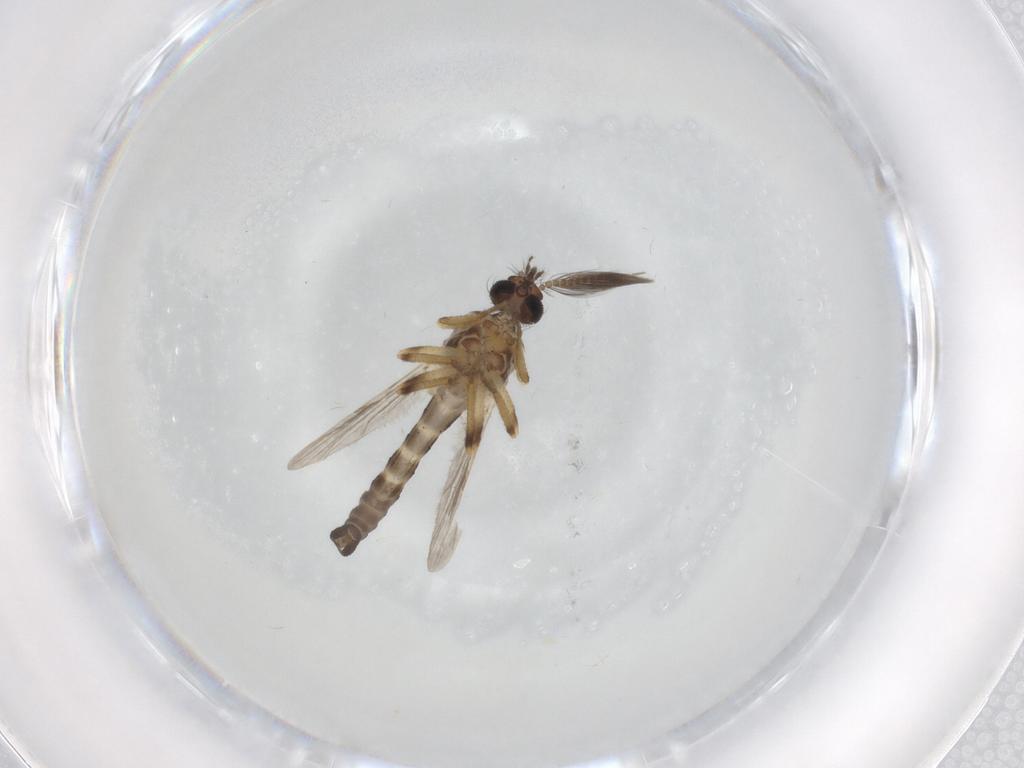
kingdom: Animalia
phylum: Arthropoda
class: Insecta
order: Diptera
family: Ceratopogonidae
